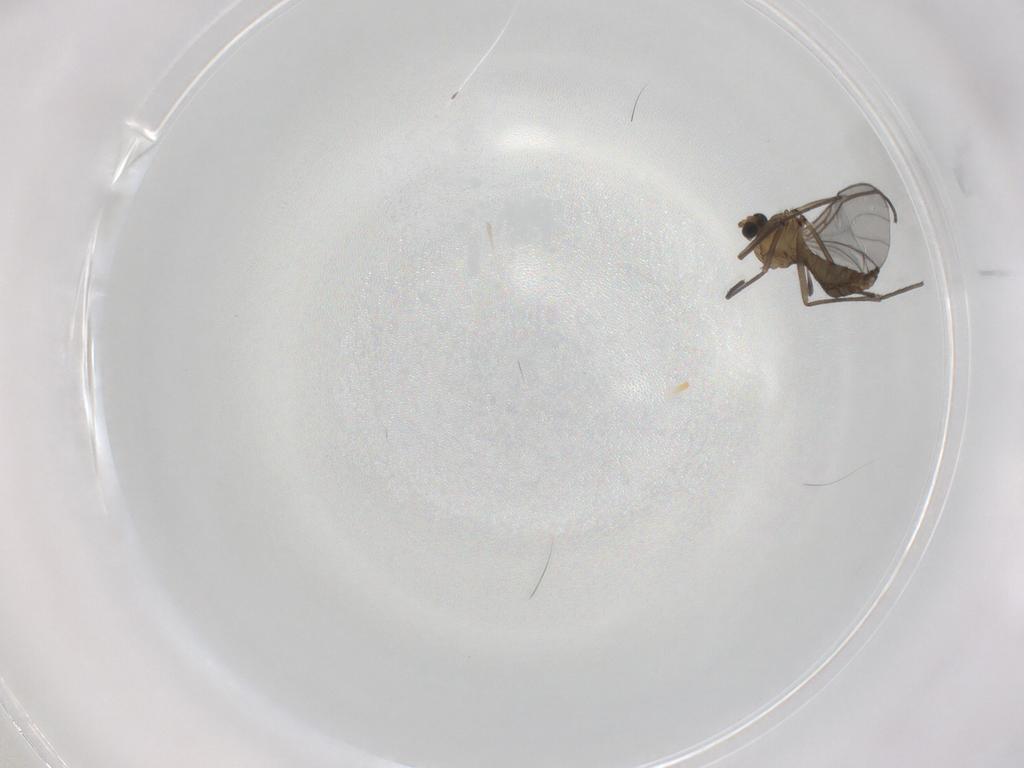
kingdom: Animalia
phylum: Arthropoda
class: Insecta
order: Diptera
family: Sciaridae
